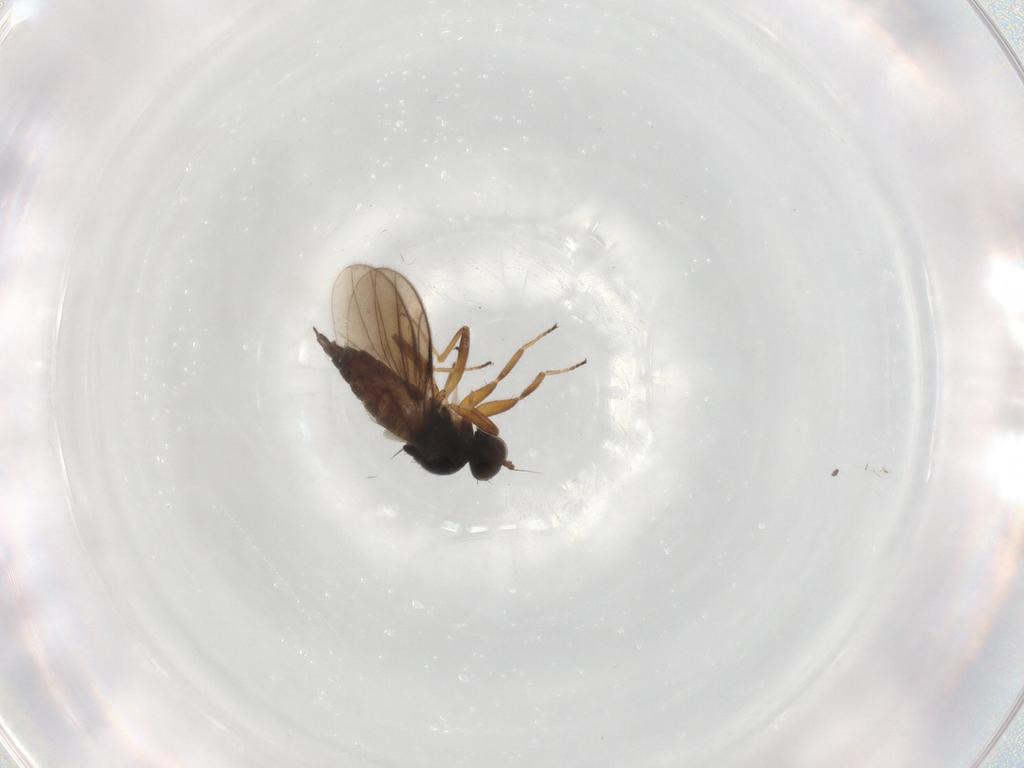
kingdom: Animalia
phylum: Arthropoda
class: Insecta
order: Diptera
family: Hybotidae
